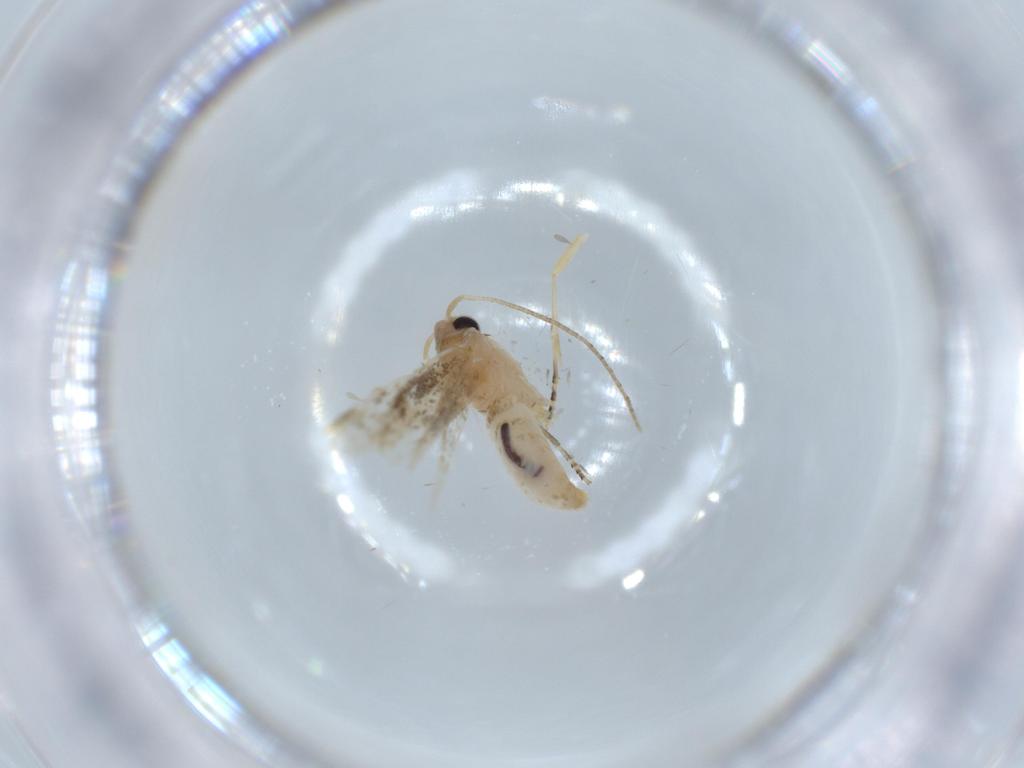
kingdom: Animalia
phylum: Arthropoda
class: Insecta
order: Lepidoptera
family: Bucculatricidae
